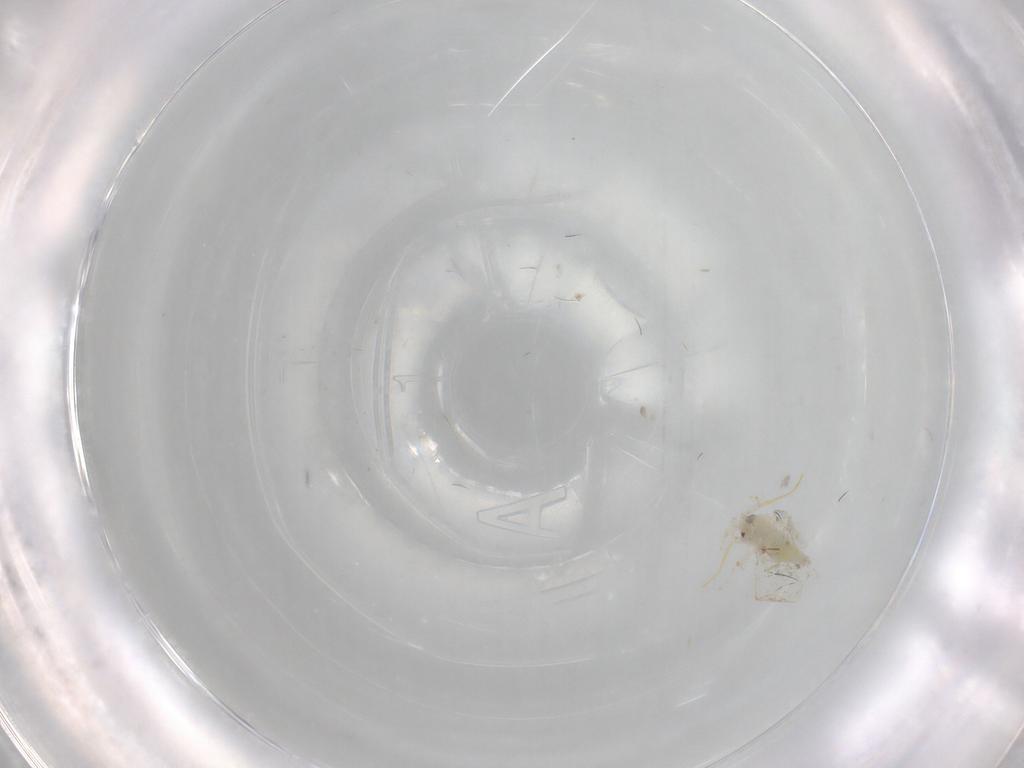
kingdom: Animalia
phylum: Arthropoda
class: Insecta
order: Hemiptera
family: Aleyrodidae
